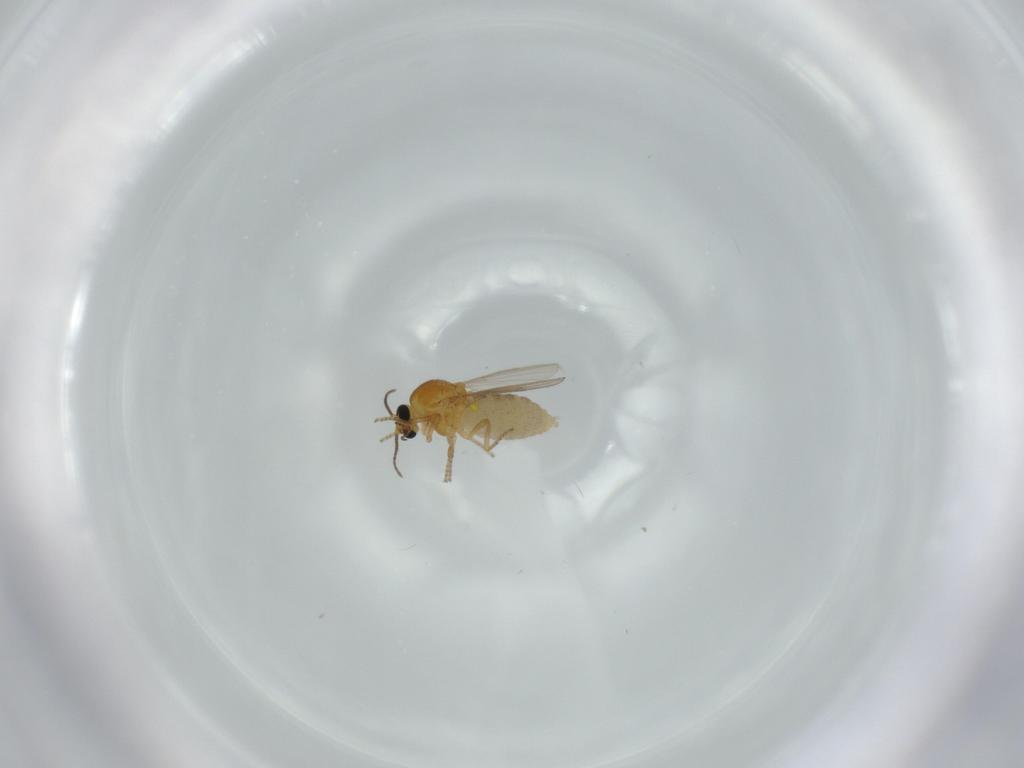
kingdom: Animalia
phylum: Arthropoda
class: Insecta
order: Diptera
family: Ceratopogonidae
